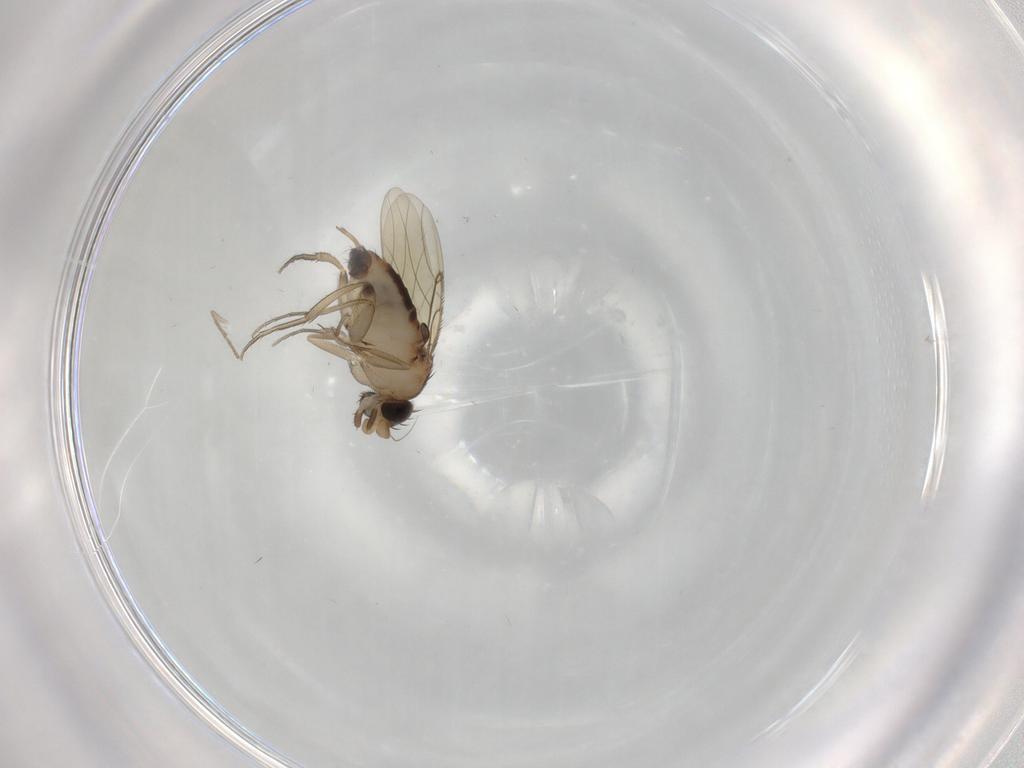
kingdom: Animalia
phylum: Arthropoda
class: Insecta
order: Diptera
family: Psychodidae
